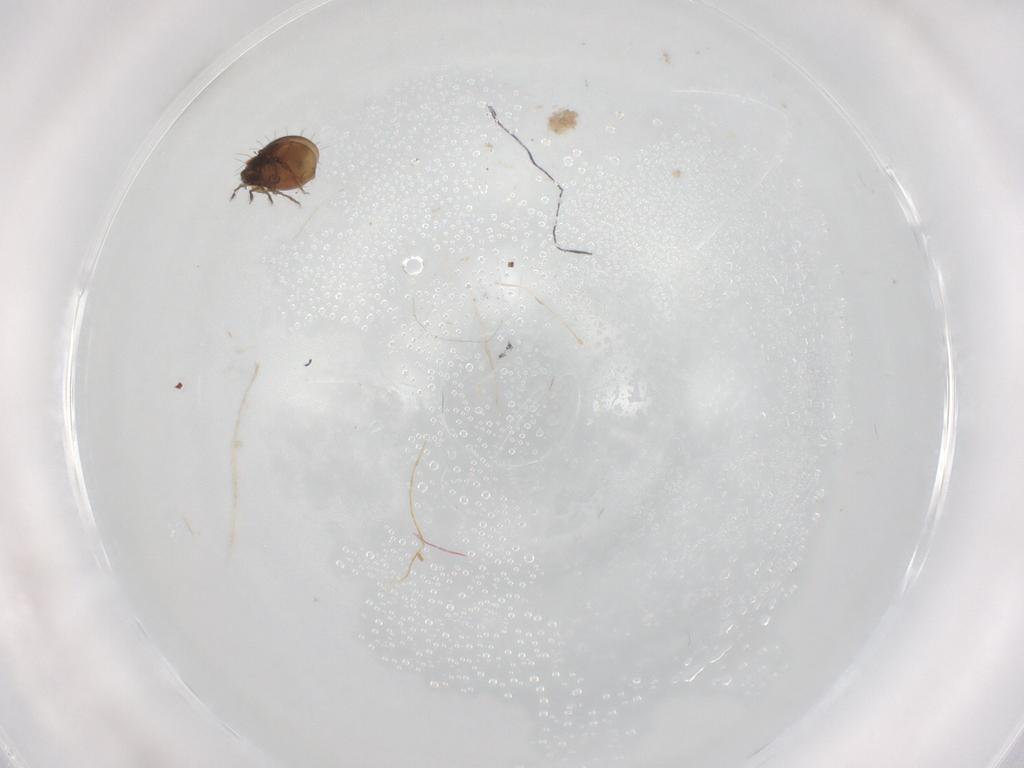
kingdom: Animalia
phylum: Arthropoda
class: Arachnida
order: Sarcoptiformes
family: Humerobatidae
